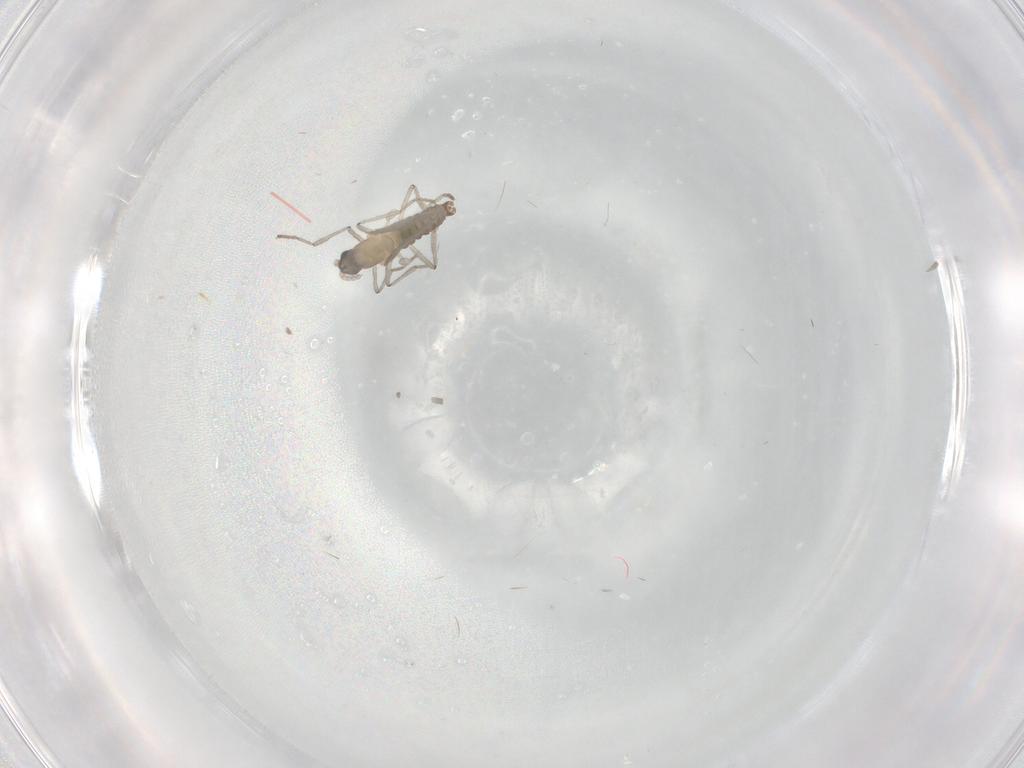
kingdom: Animalia
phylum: Arthropoda
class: Insecta
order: Diptera
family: Cecidomyiidae
